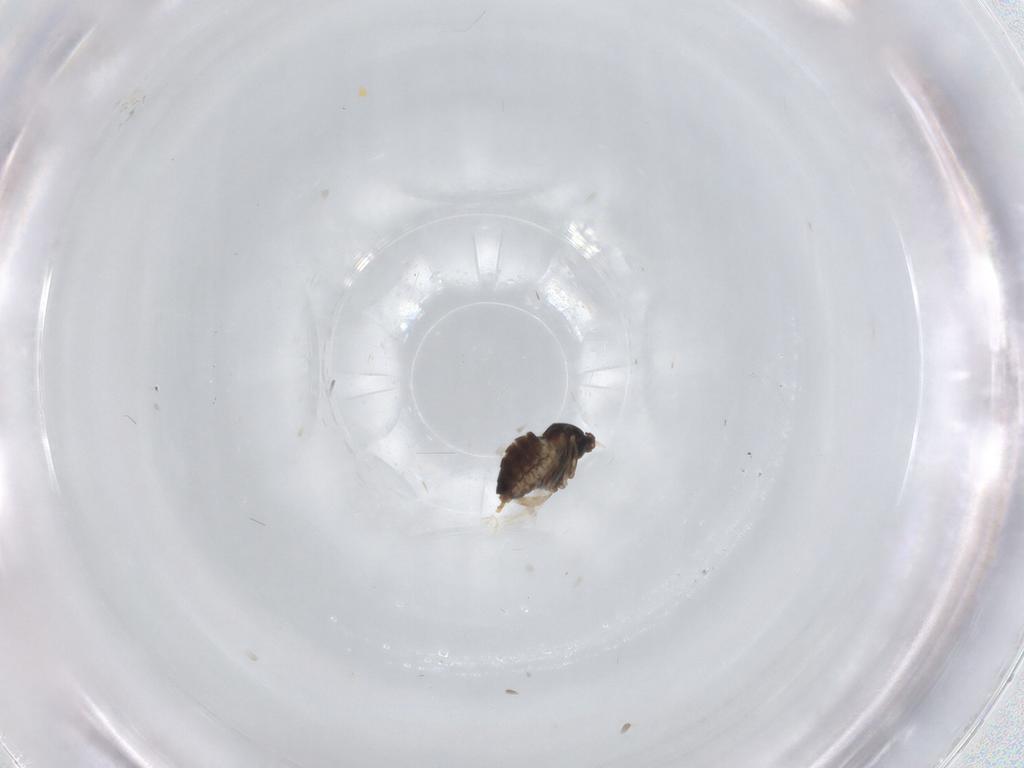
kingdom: Animalia
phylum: Arthropoda
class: Insecta
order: Diptera
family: Cecidomyiidae
